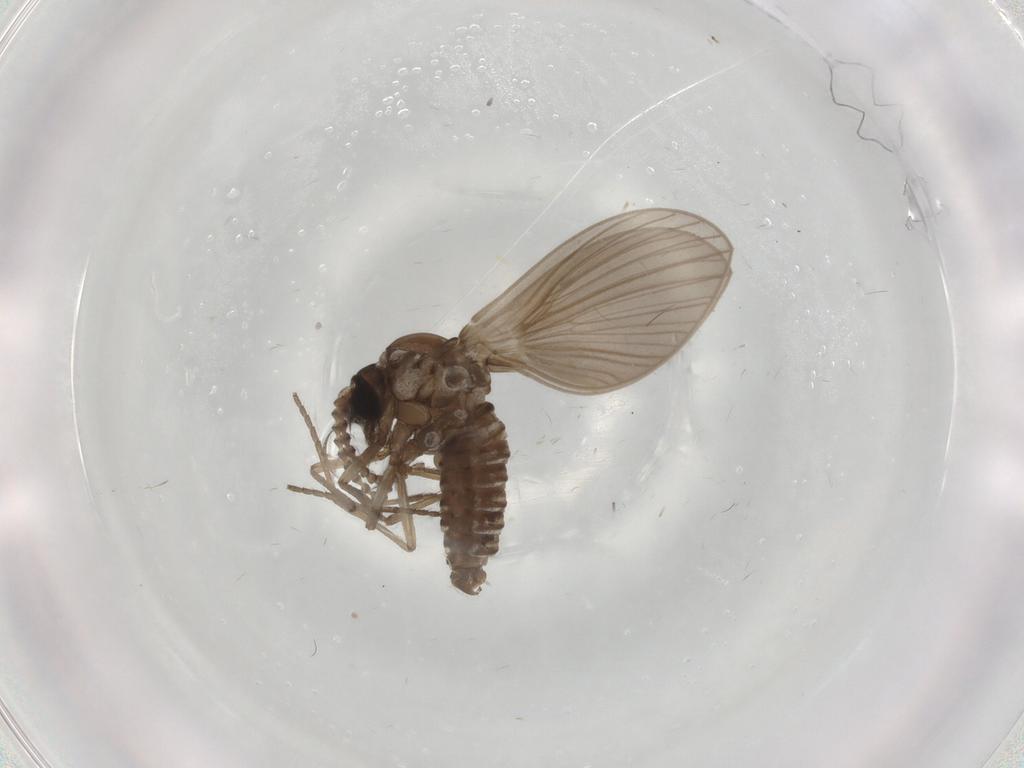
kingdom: Animalia
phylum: Arthropoda
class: Insecta
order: Diptera
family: Psychodidae
